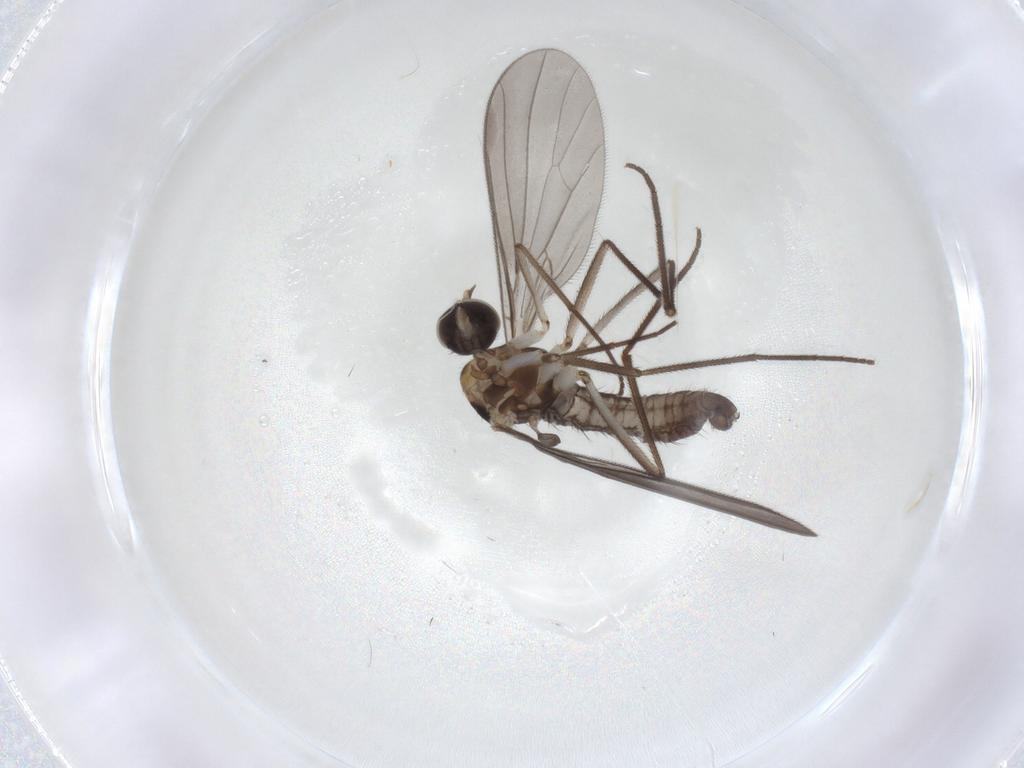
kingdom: Animalia
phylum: Arthropoda
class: Insecta
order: Diptera
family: Empididae
